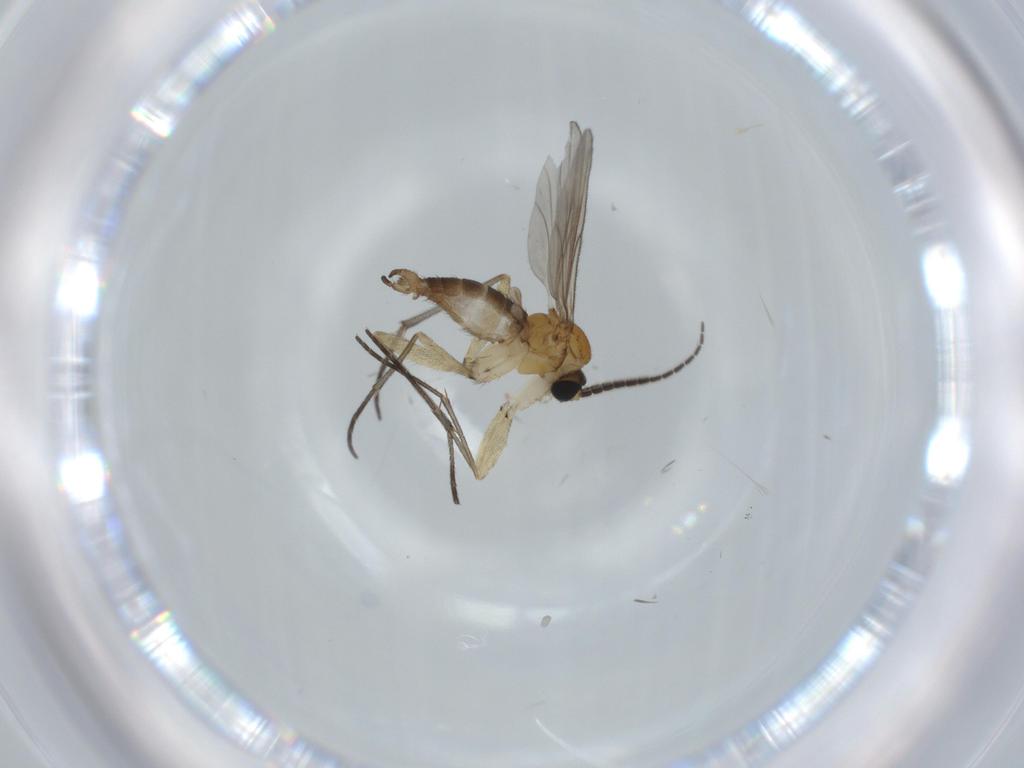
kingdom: Animalia
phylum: Arthropoda
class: Insecta
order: Diptera
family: Sciaridae
